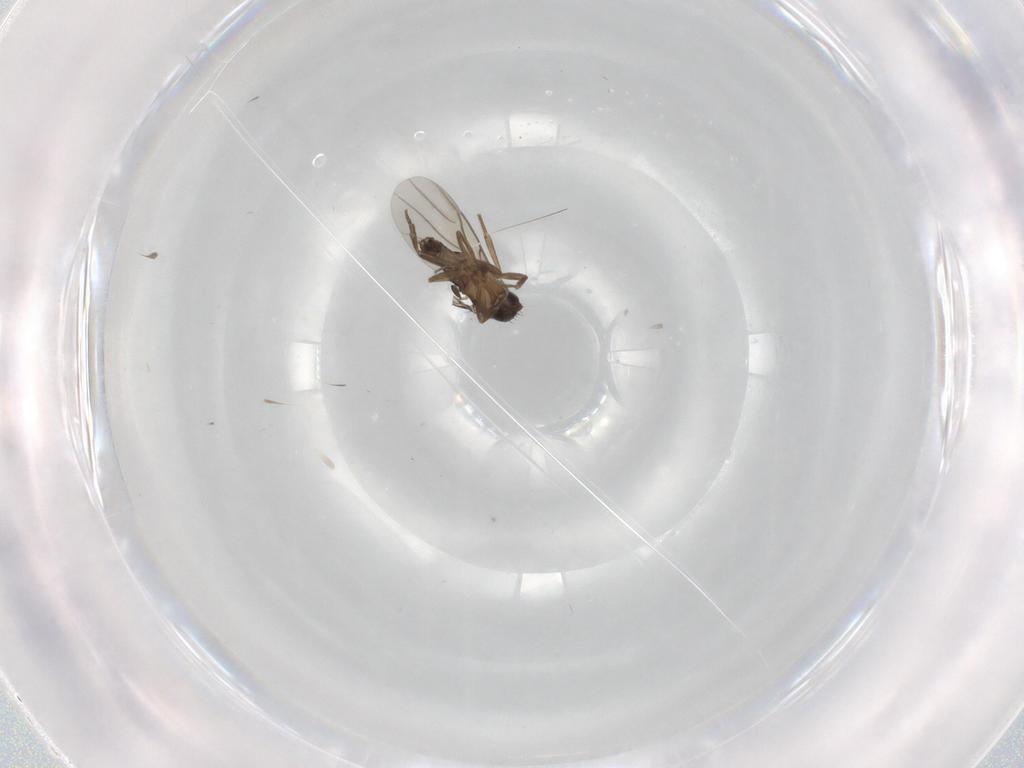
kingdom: Animalia
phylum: Arthropoda
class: Insecta
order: Diptera
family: Phoridae
